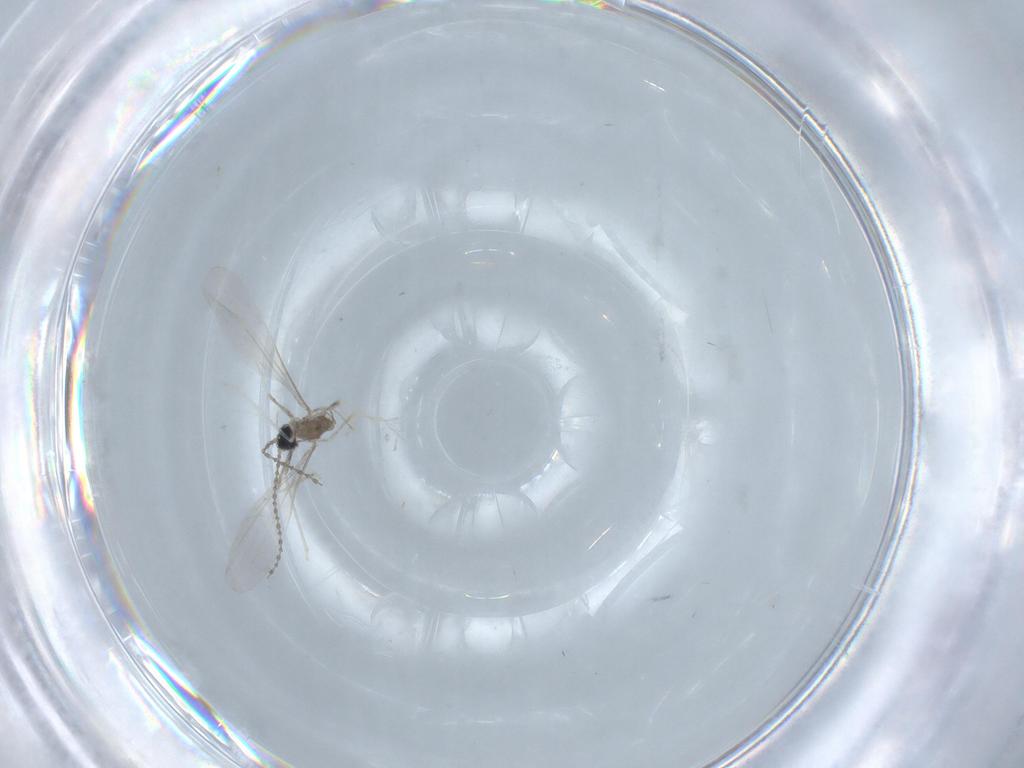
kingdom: Animalia
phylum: Arthropoda
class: Insecta
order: Diptera
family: Cecidomyiidae
